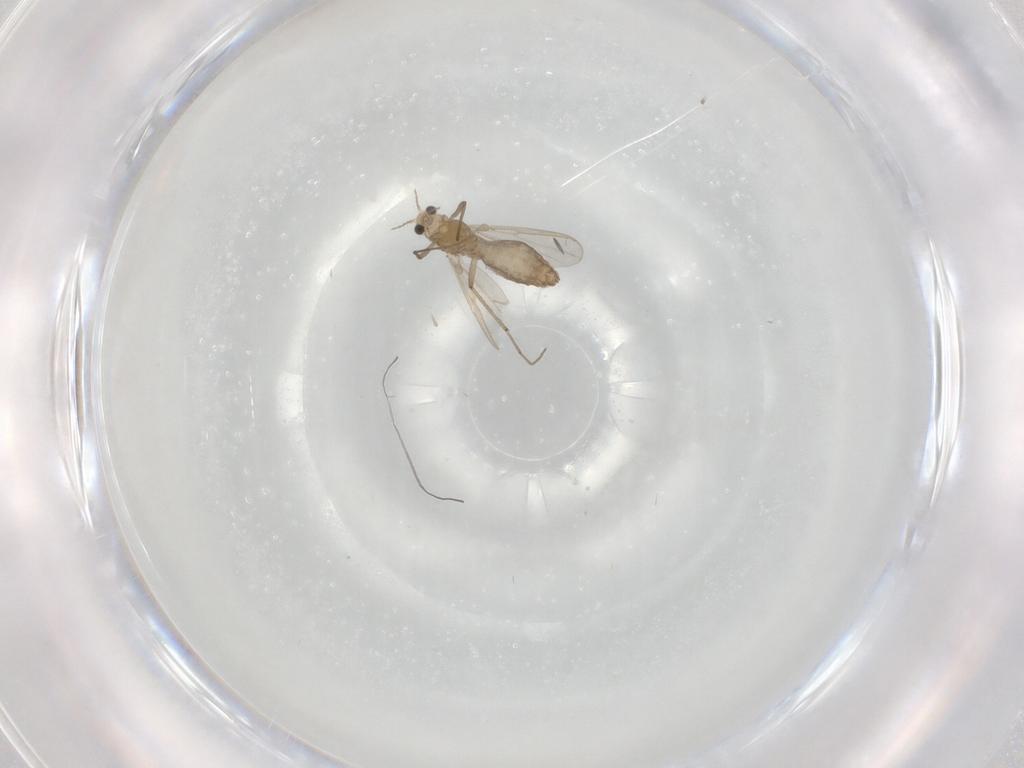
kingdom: Animalia
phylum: Arthropoda
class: Insecta
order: Diptera
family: Chironomidae
